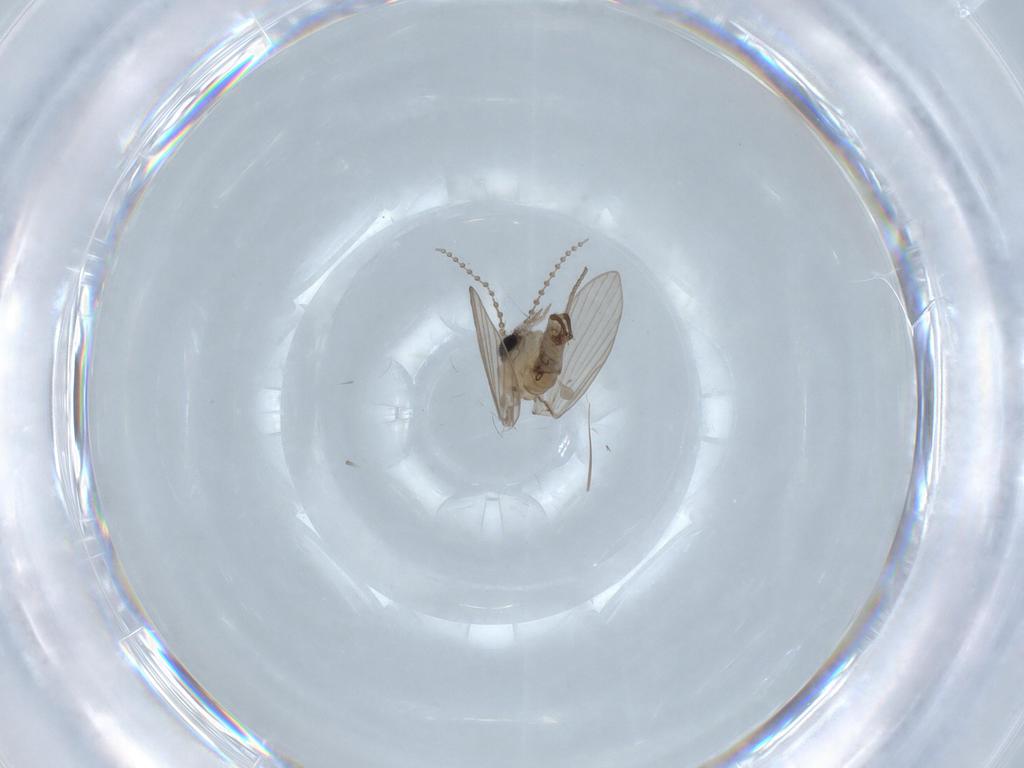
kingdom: Animalia
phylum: Arthropoda
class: Insecta
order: Diptera
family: Psychodidae
